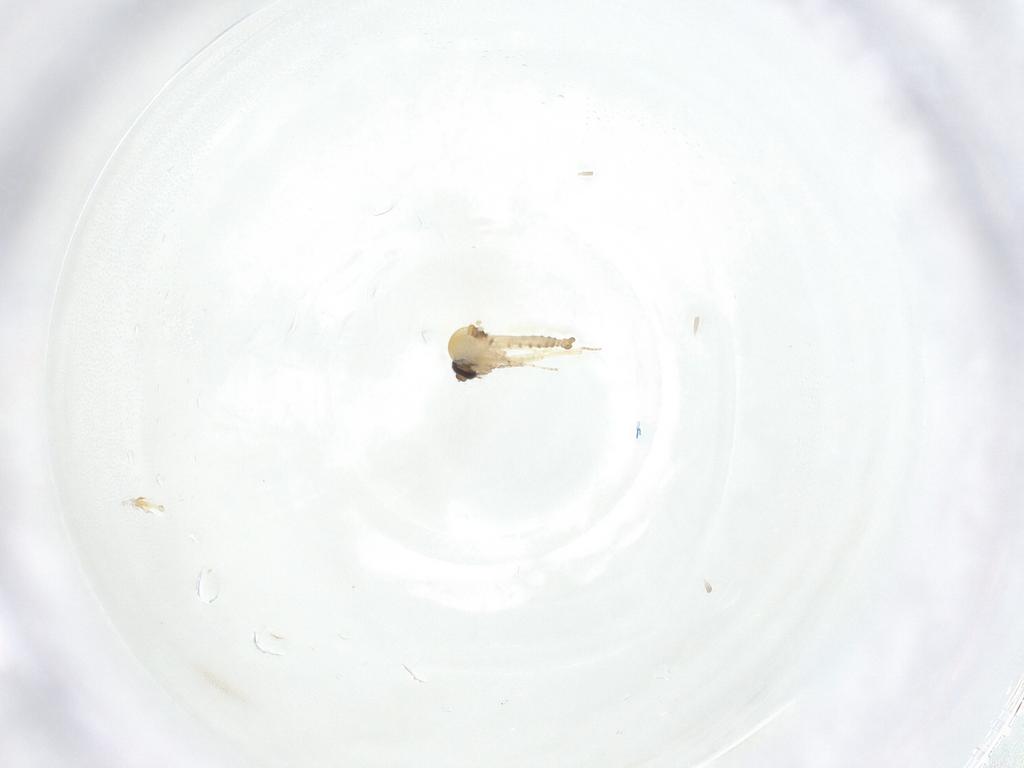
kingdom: Animalia
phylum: Arthropoda
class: Insecta
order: Diptera
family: Ceratopogonidae
